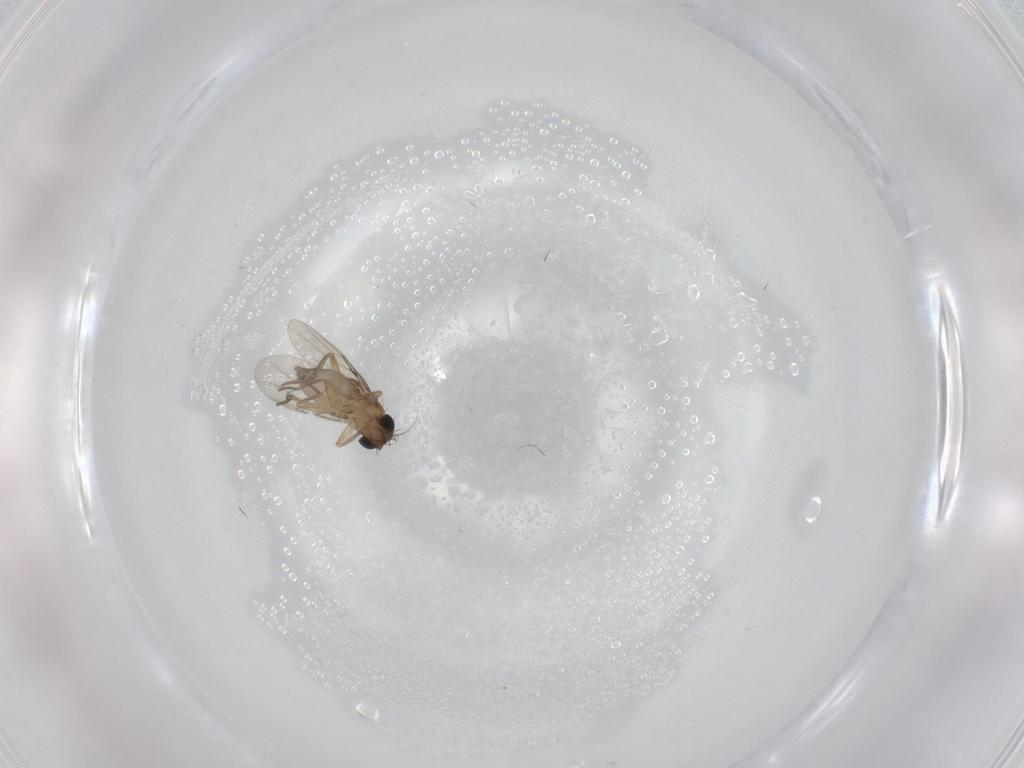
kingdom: Animalia
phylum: Arthropoda
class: Insecta
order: Diptera
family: Phoridae
